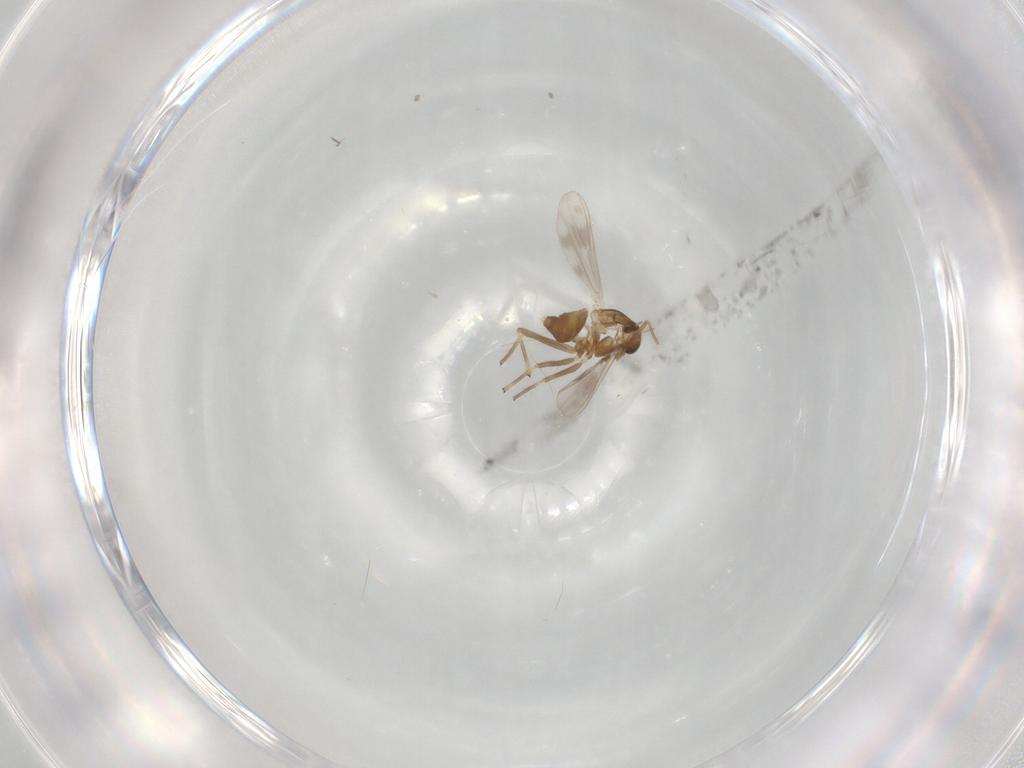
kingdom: Animalia
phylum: Arthropoda
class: Insecta
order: Diptera
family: Chironomidae
